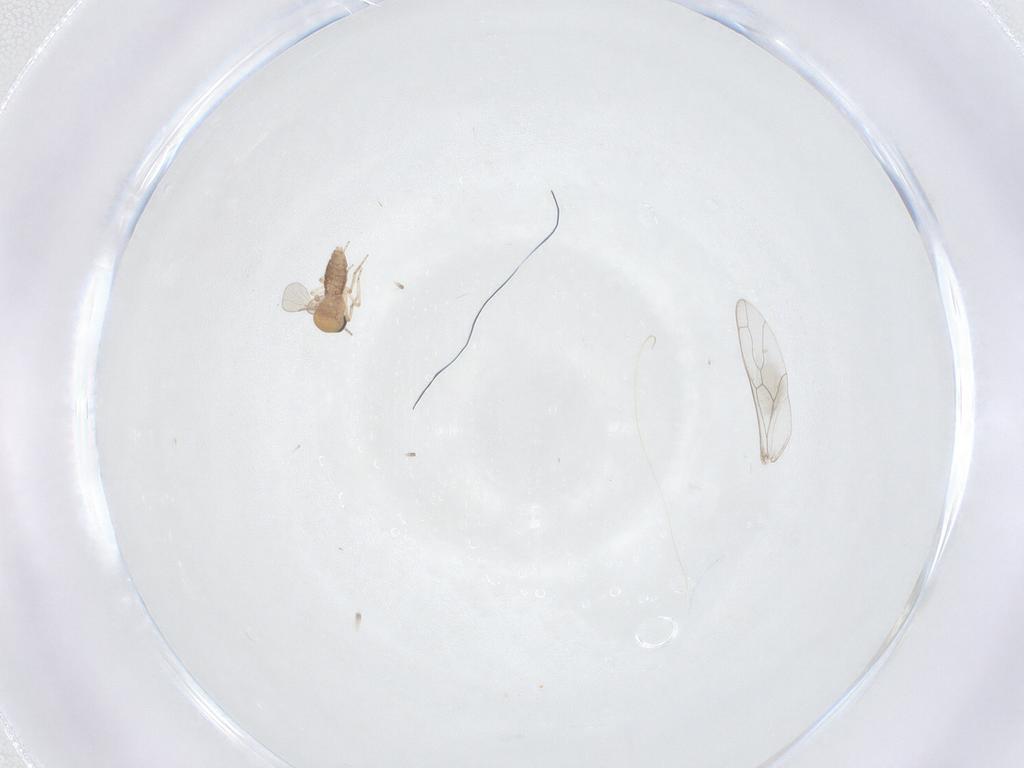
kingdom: Animalia
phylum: Arthropoda
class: Insecta
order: Diptera
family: Ceratopogonidae
